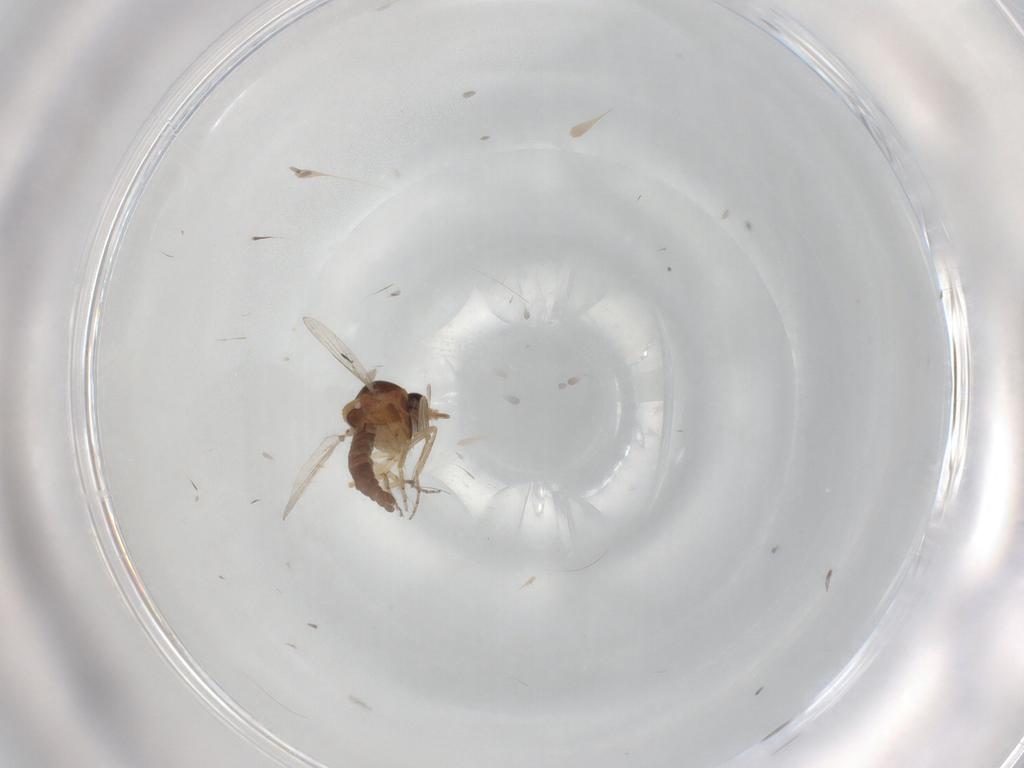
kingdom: Animalia
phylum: Arthropoda
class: Insecta
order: Diptera
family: Ceratopogonidae
